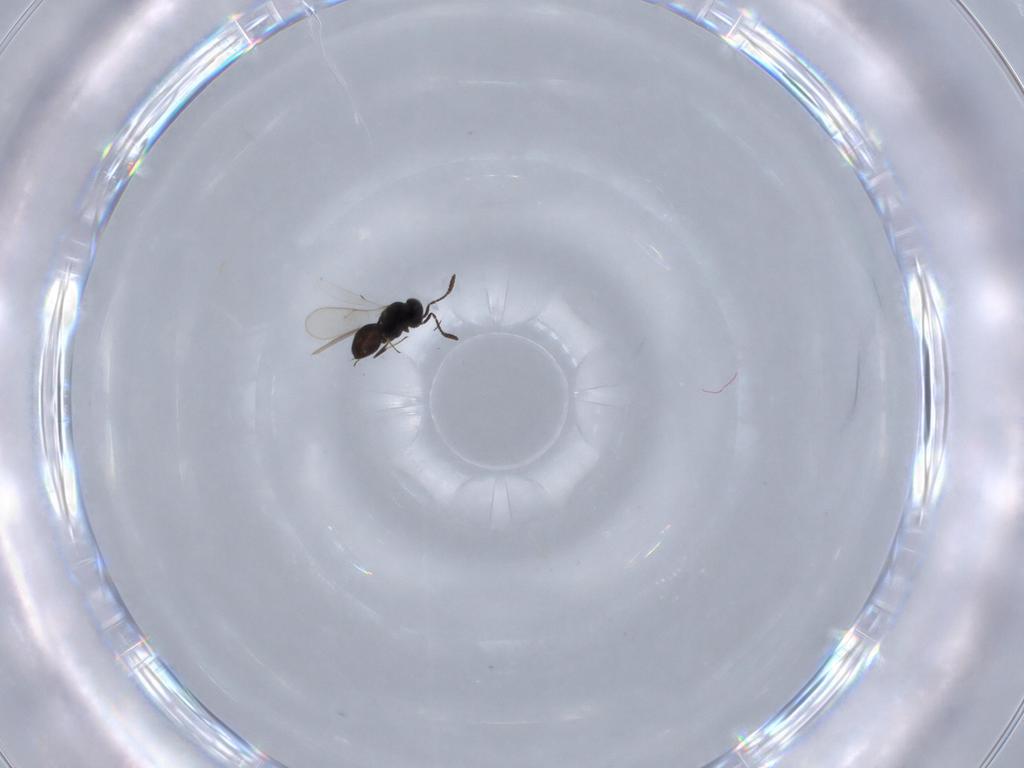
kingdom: Animalia
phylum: Arthropoda
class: Insecta
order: Hymenoptera
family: Scelionidae
